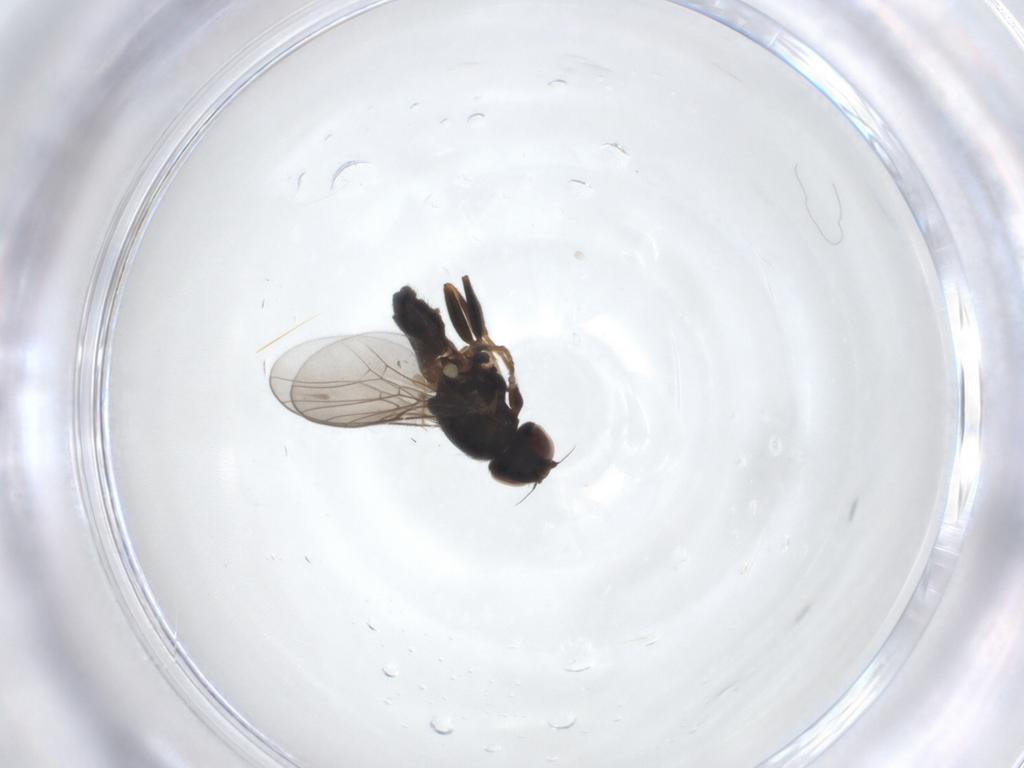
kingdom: Animalia
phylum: Arthropoda
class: Insecta
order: Diptera
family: Chloropidae
